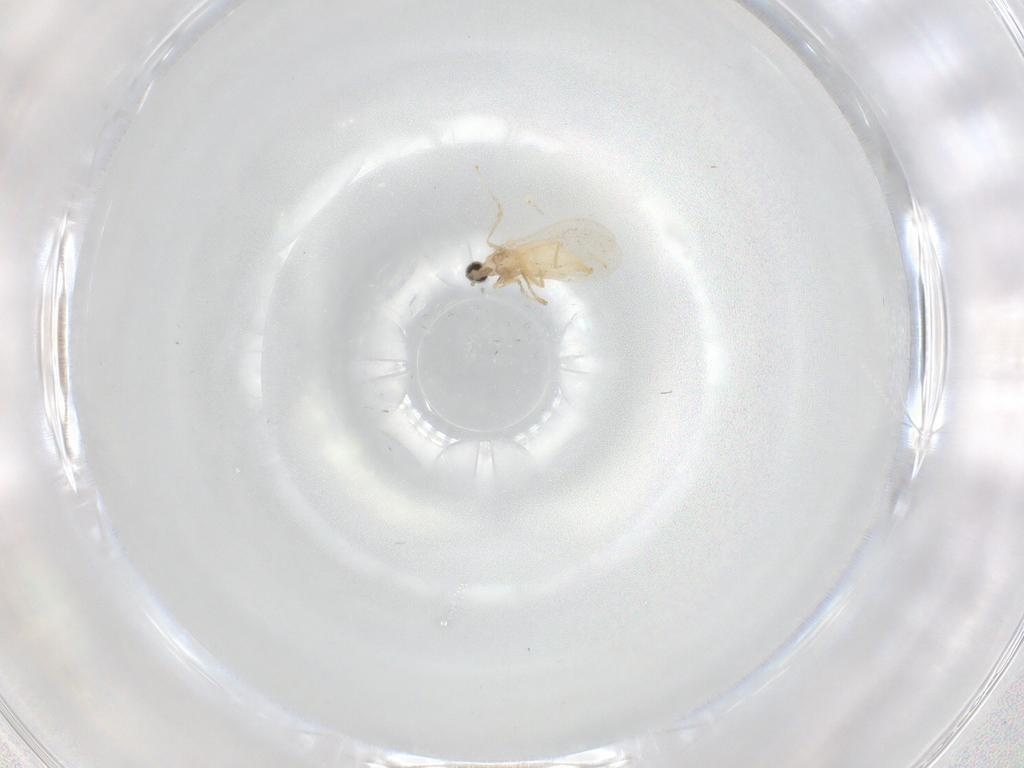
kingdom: Animalia
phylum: Arthropoda
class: Insecta
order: Diptera
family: Cecidomyiidae
